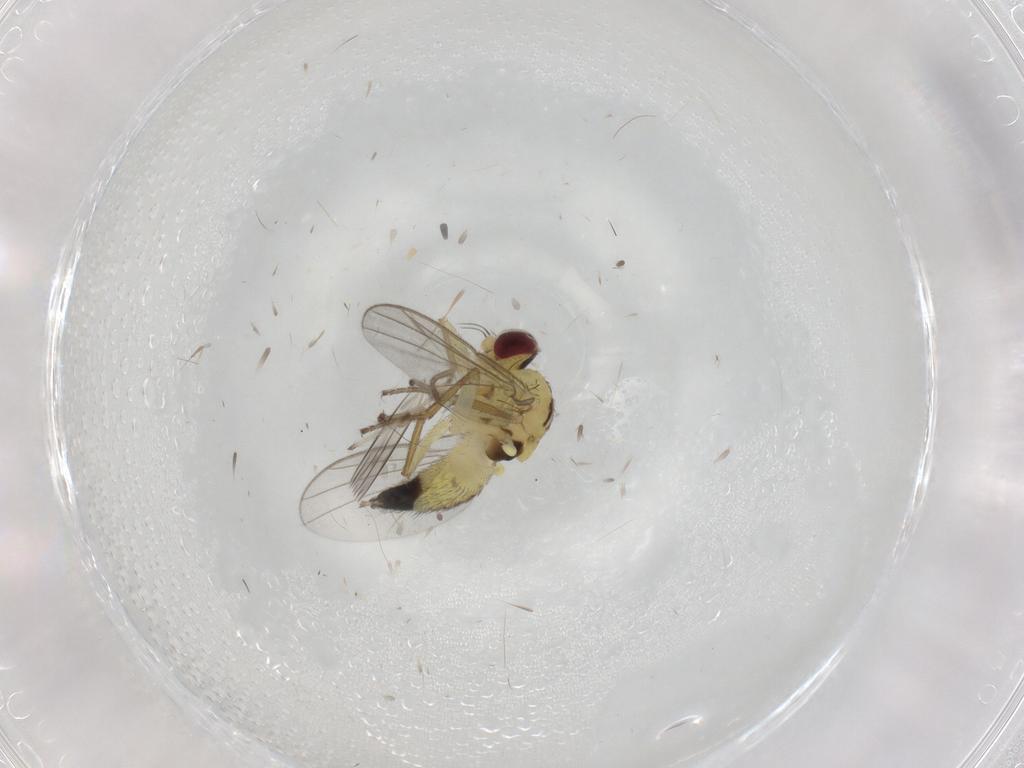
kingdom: Animalia
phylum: Arthropoda
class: Insecta
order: Diptera
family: Agromyzidae
